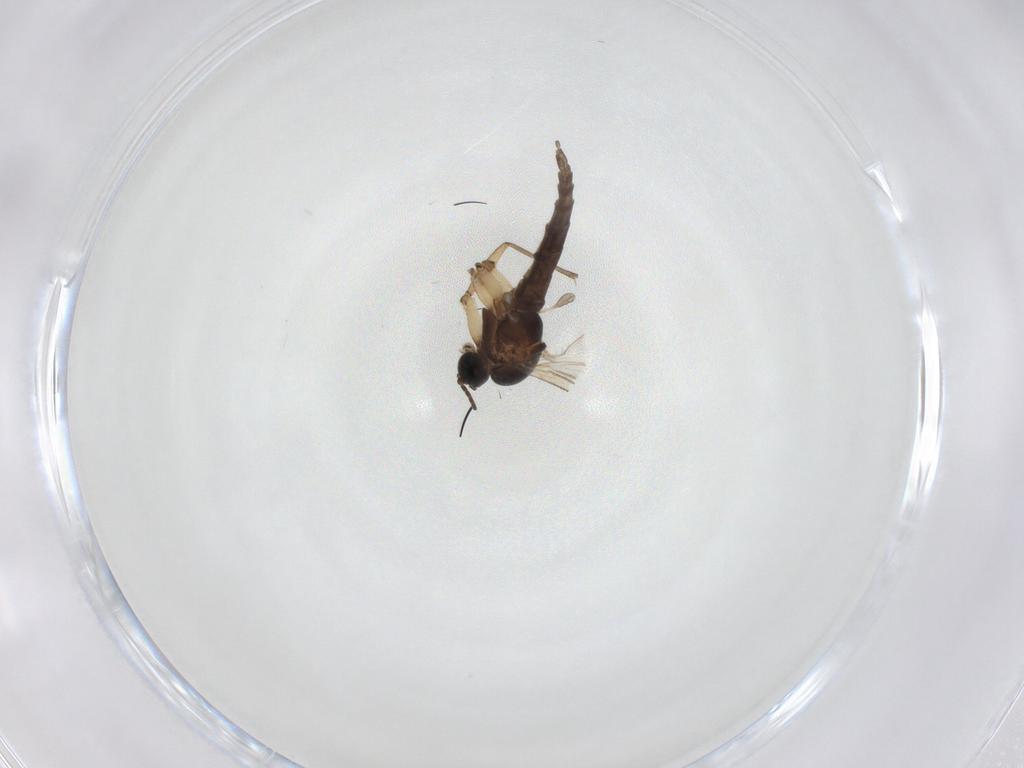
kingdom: Animalia
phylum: Arthropoda
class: Insecta
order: Diptera
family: Sciaridae
